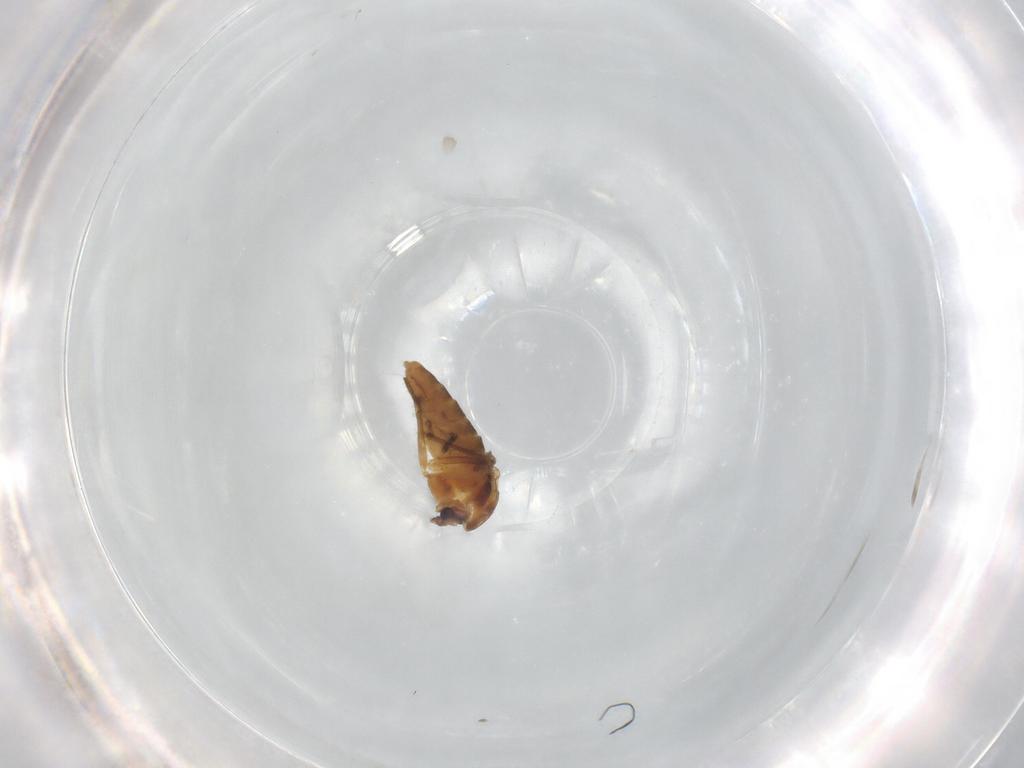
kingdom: Animalia
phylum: Arthropoda
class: Insecta
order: Diptera
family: Chironomidae
